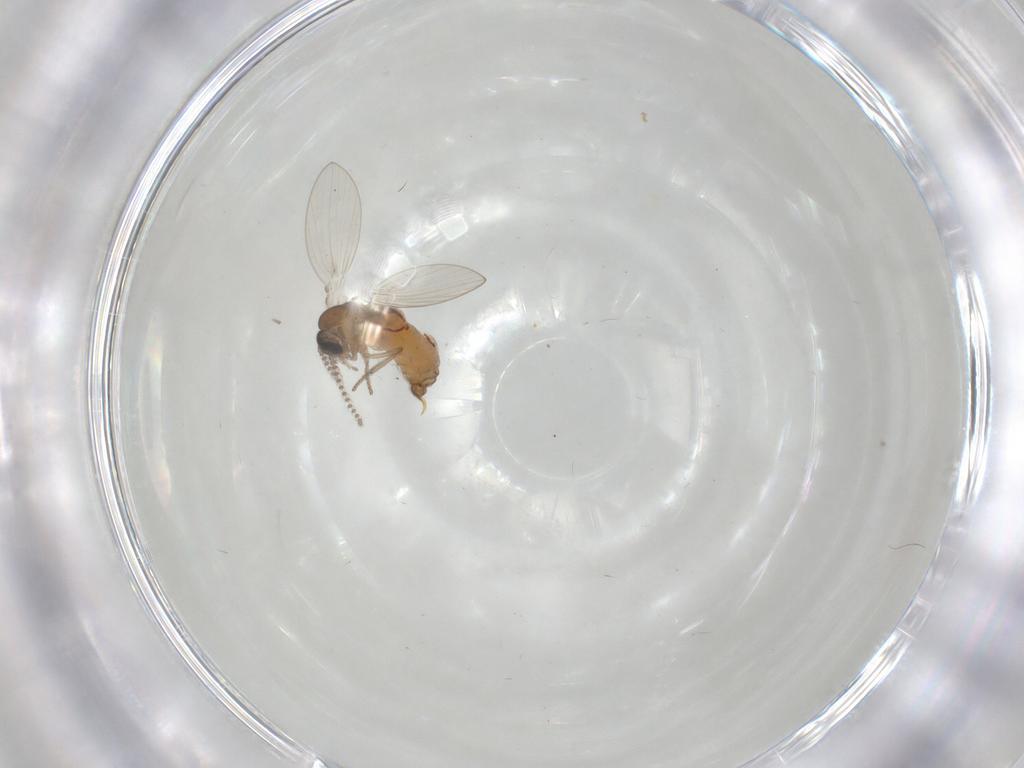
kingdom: Animalia
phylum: Arthropoda
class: Insecta
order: Diptera
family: Psychodidae
